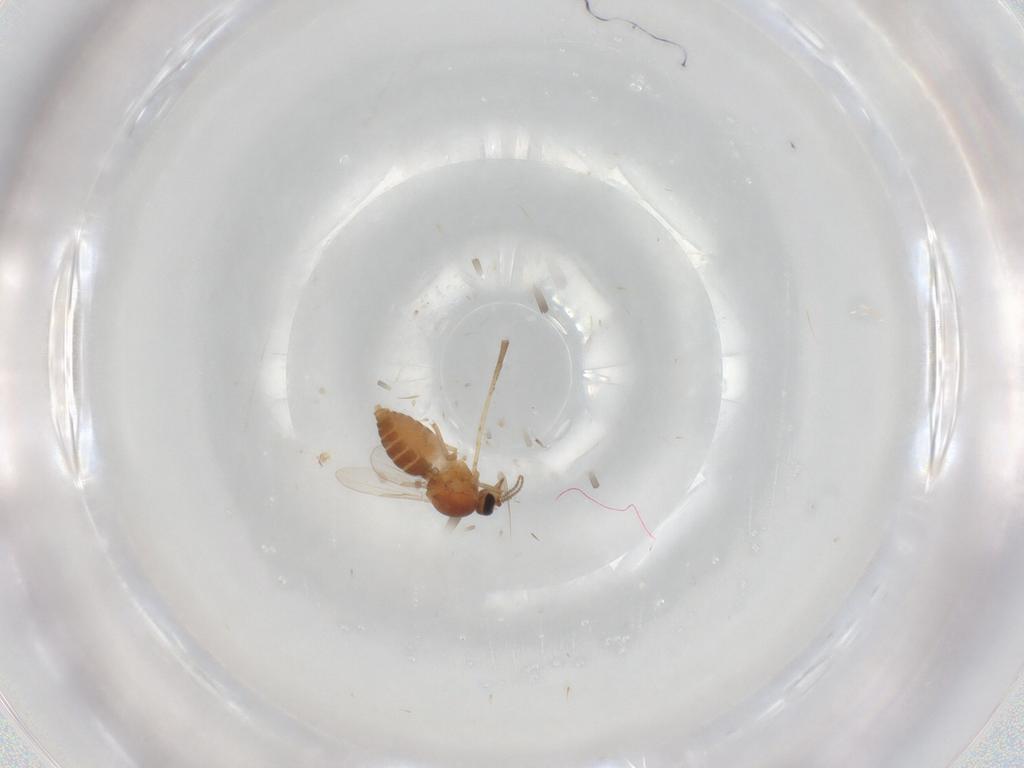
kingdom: Animalia
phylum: Arthropoda
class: Insecta
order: Diptera
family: Ceratopogonidae
